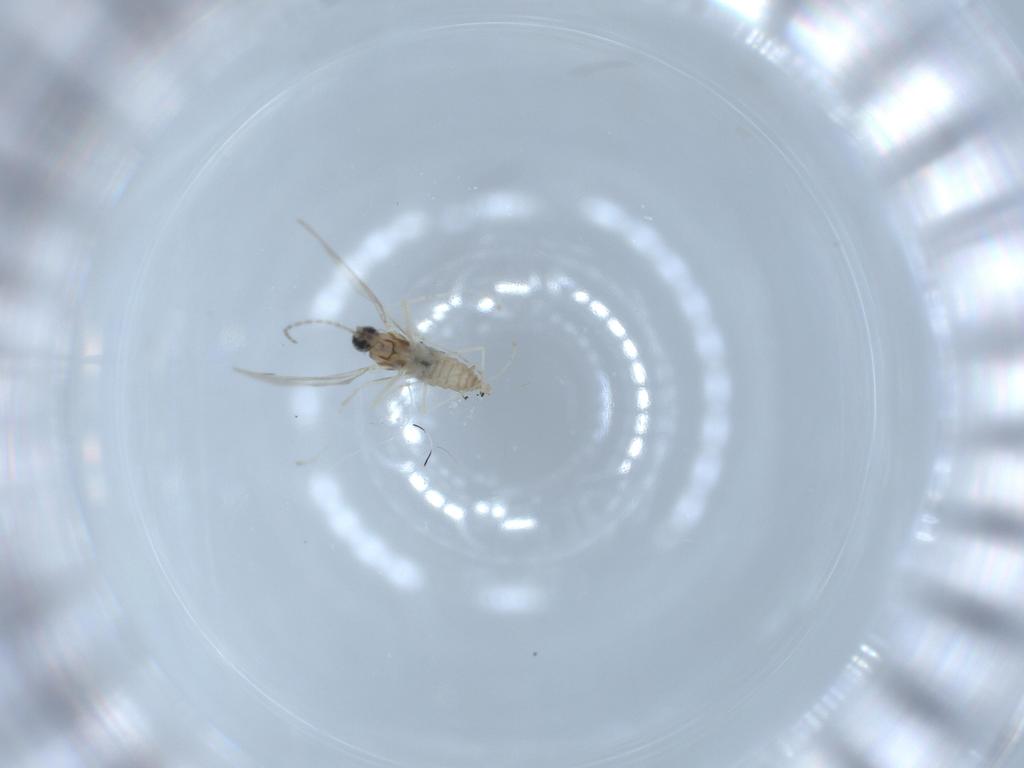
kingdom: Animalia
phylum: Arthropoda
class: Insecta
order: Diptera
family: Cecidomyiidae
